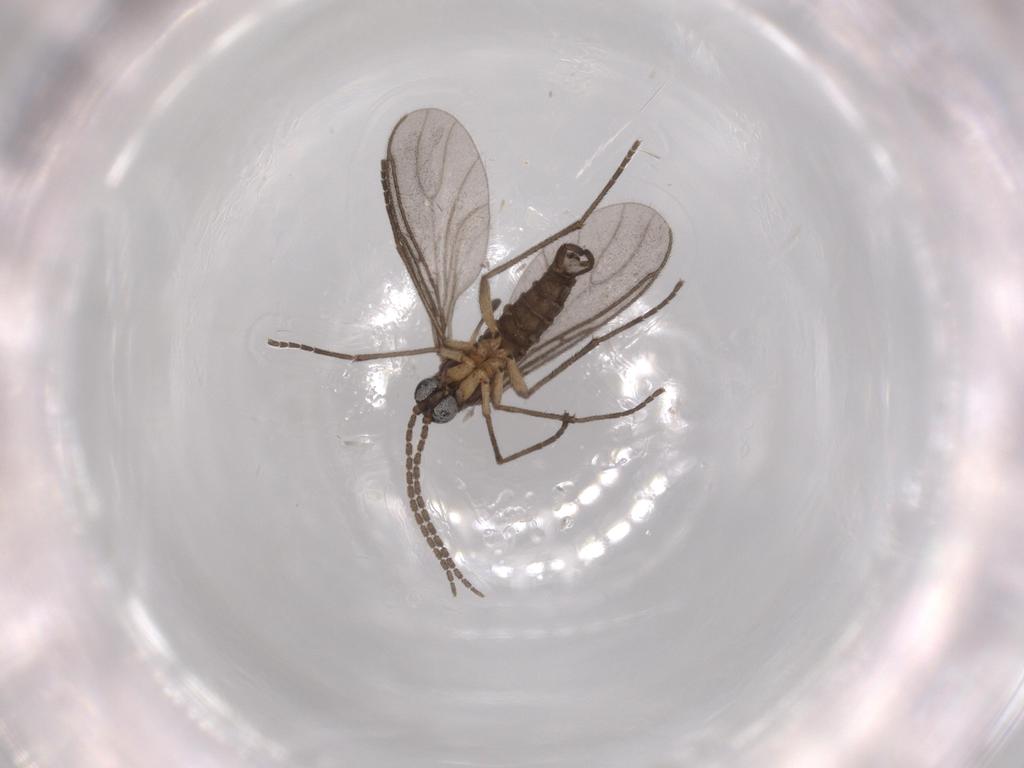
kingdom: Animalia
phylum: Arthropoda
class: Insecta
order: Diptera
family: Sciaridae
